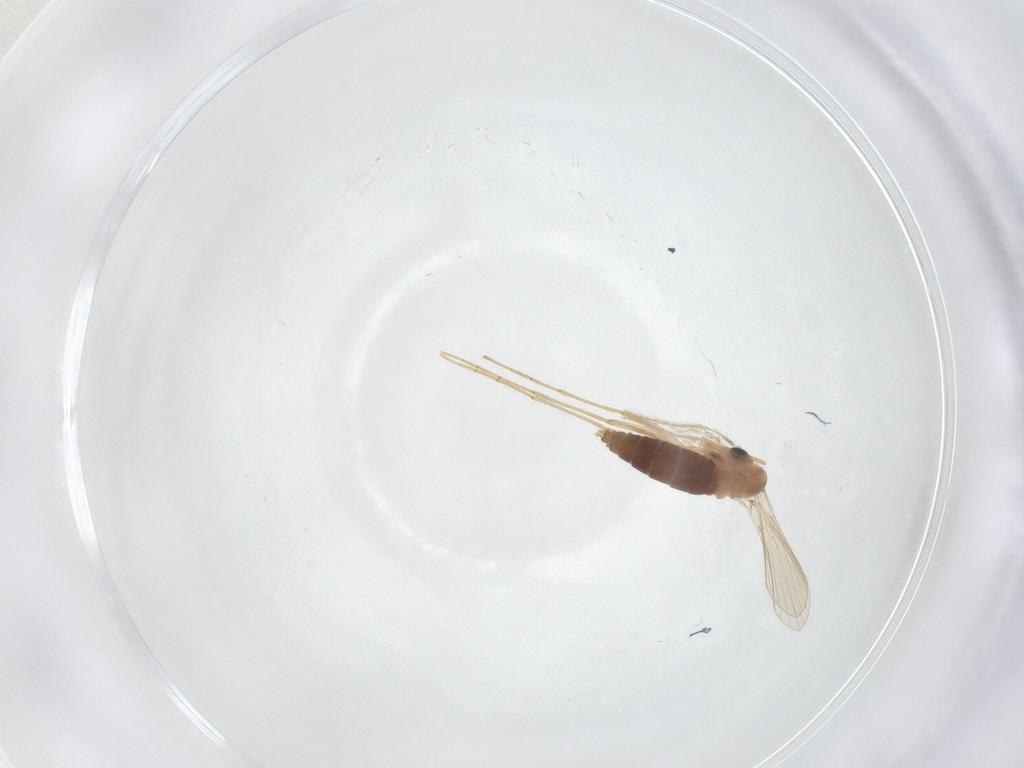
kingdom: Animalia
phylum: Arthropoda
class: Insecta
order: Diptera
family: Psychodidae
